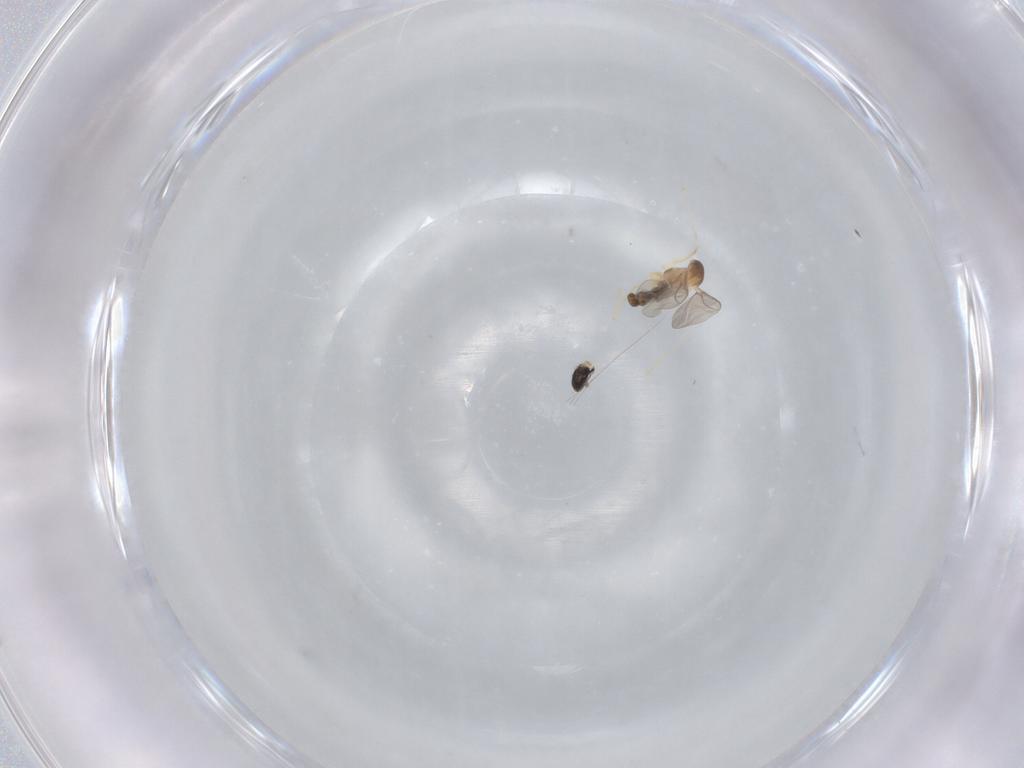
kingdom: Animalia
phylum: Arthropoda
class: Insecta
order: Diptera
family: Cecidomyiidae
